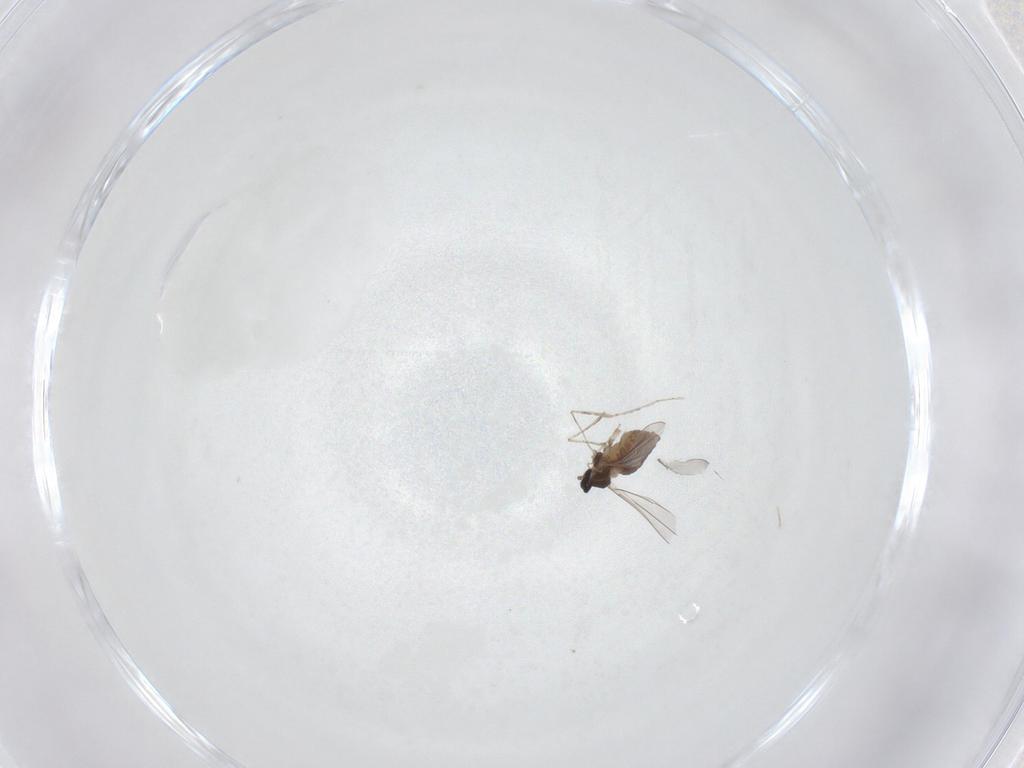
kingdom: Animalia
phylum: Arthropoda
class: Insecta
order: Diptera
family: Cecidomyiidae
